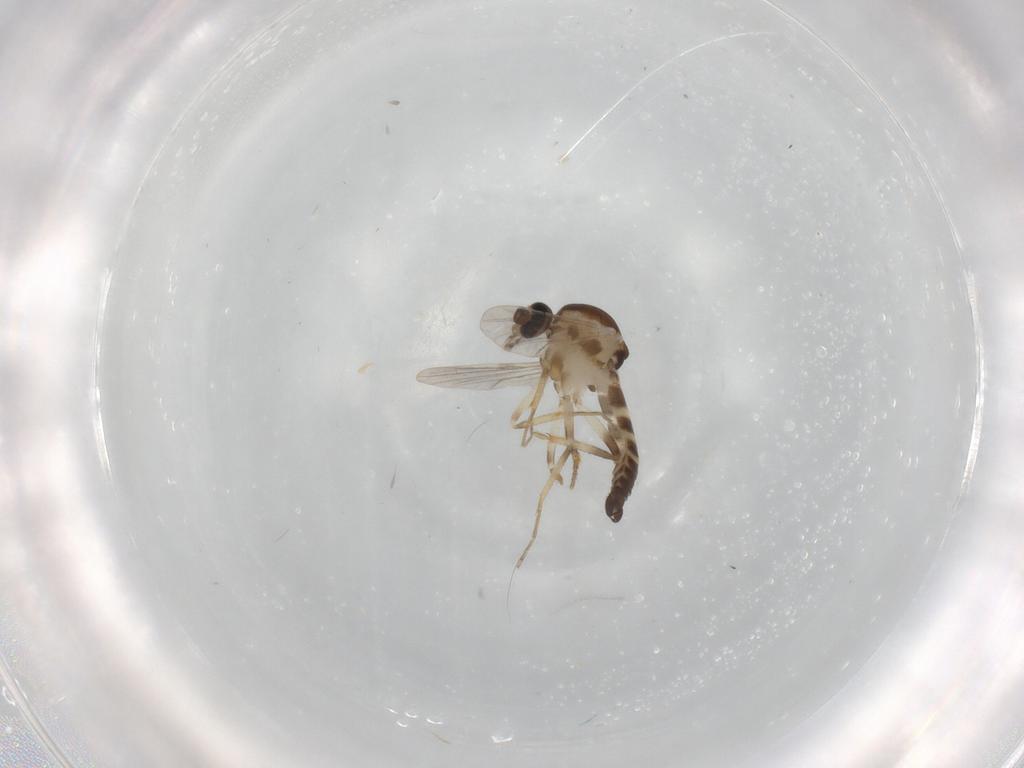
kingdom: Animalia
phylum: Arthropoda
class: Insecta
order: Diptera
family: Ceratopogonidae
